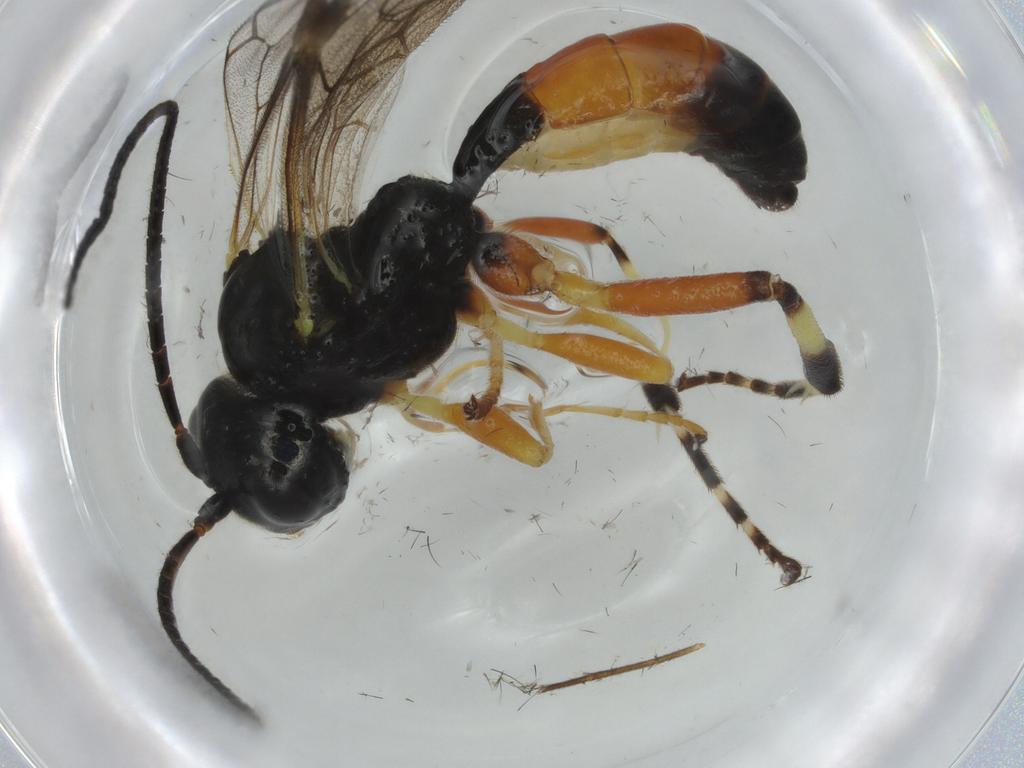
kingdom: Animalia
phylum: Arthropoda
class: Insecta
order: Hymenoptera
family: Ichneumonidae
